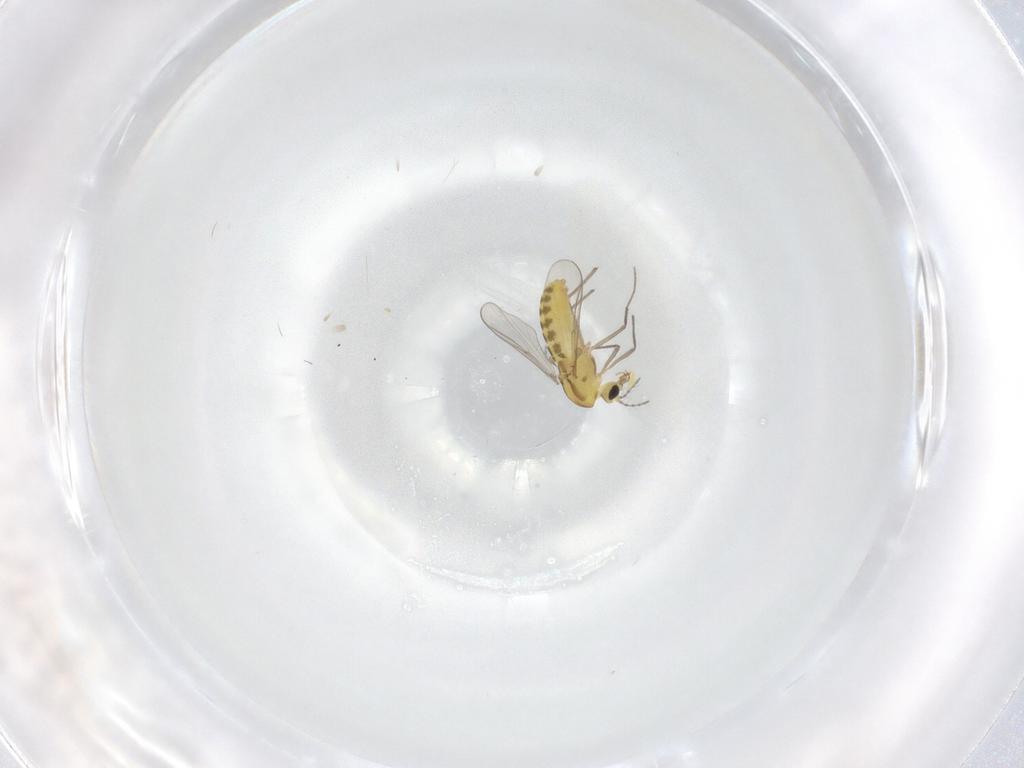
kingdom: Animalia
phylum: Arthropoda
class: Insecta
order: Diptera
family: Chironomidae
